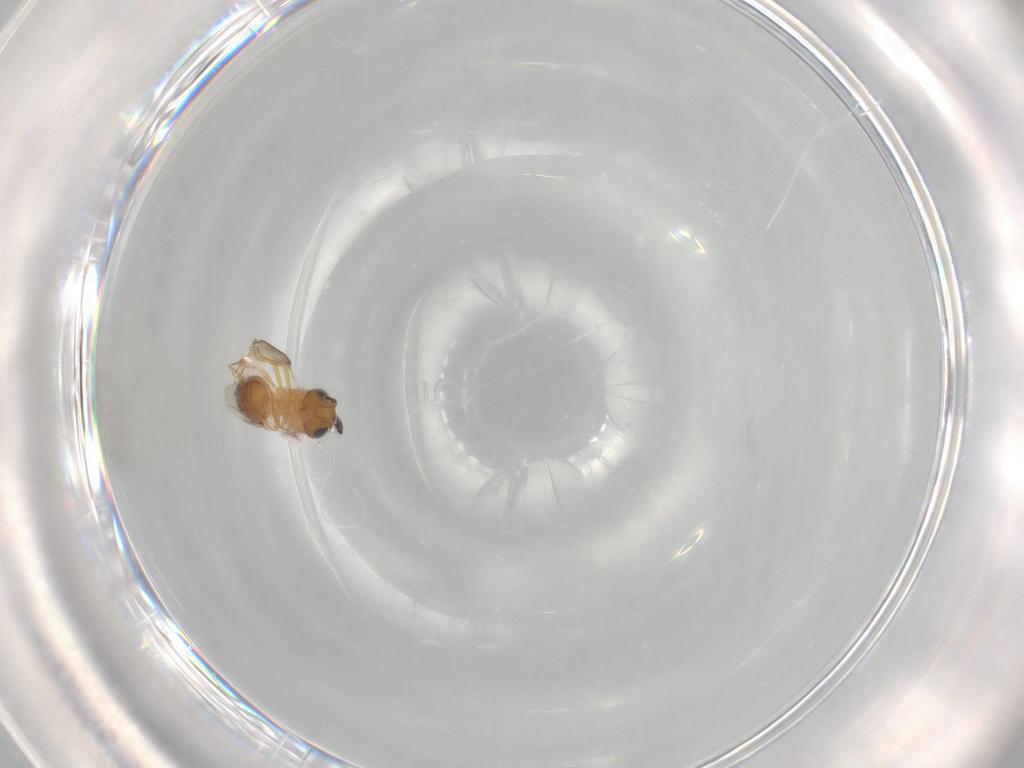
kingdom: Animalia
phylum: Arthropoda
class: Insecta
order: Hymenoptera
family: Scelionidae
